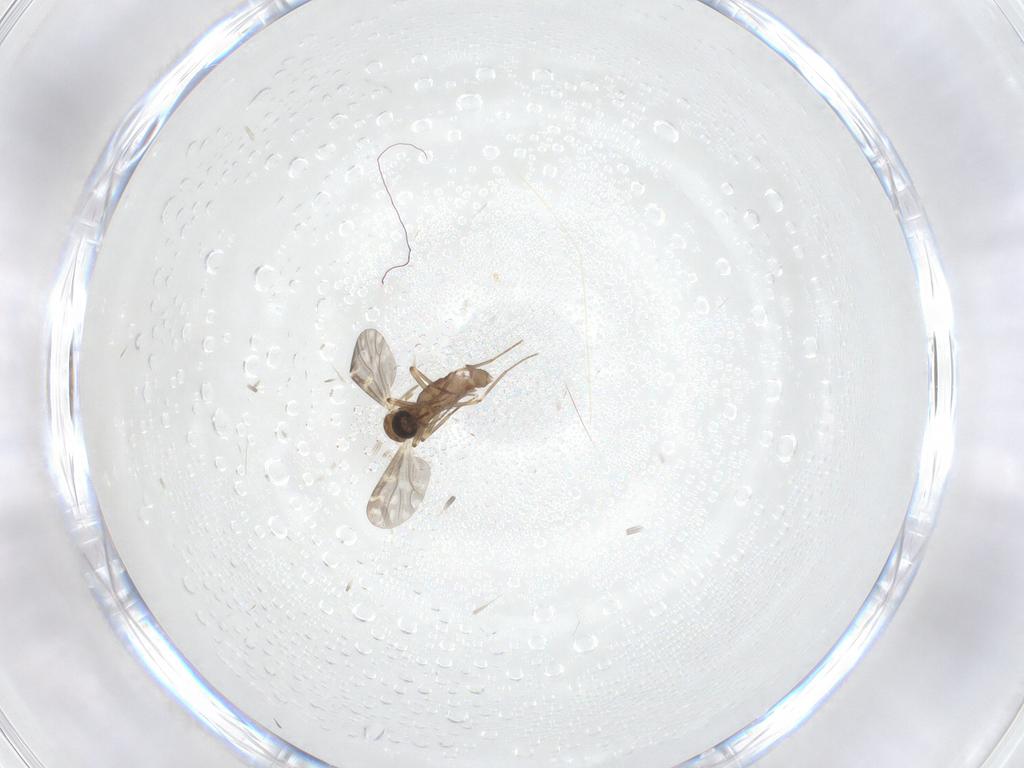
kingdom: Animalia
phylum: Arthropoda
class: Insecta
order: Diptera
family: Ceratopogonidae
